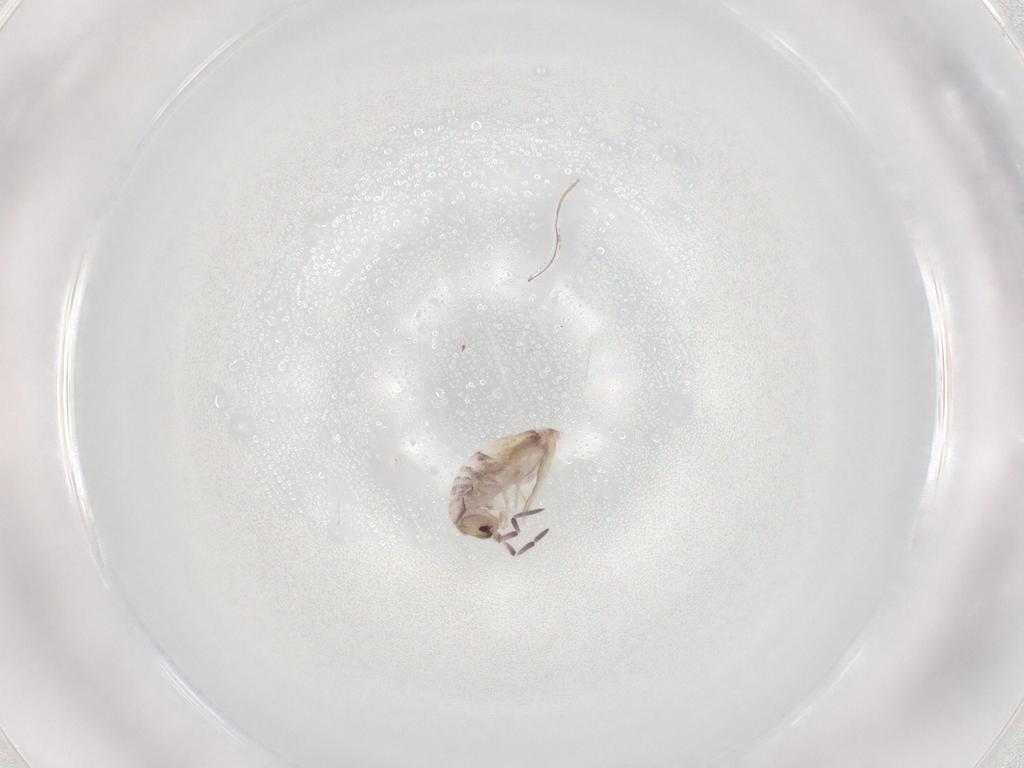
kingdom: Animalia
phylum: Arthropoda
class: Collembola
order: Poduromorpha
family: Hypogastruridae
